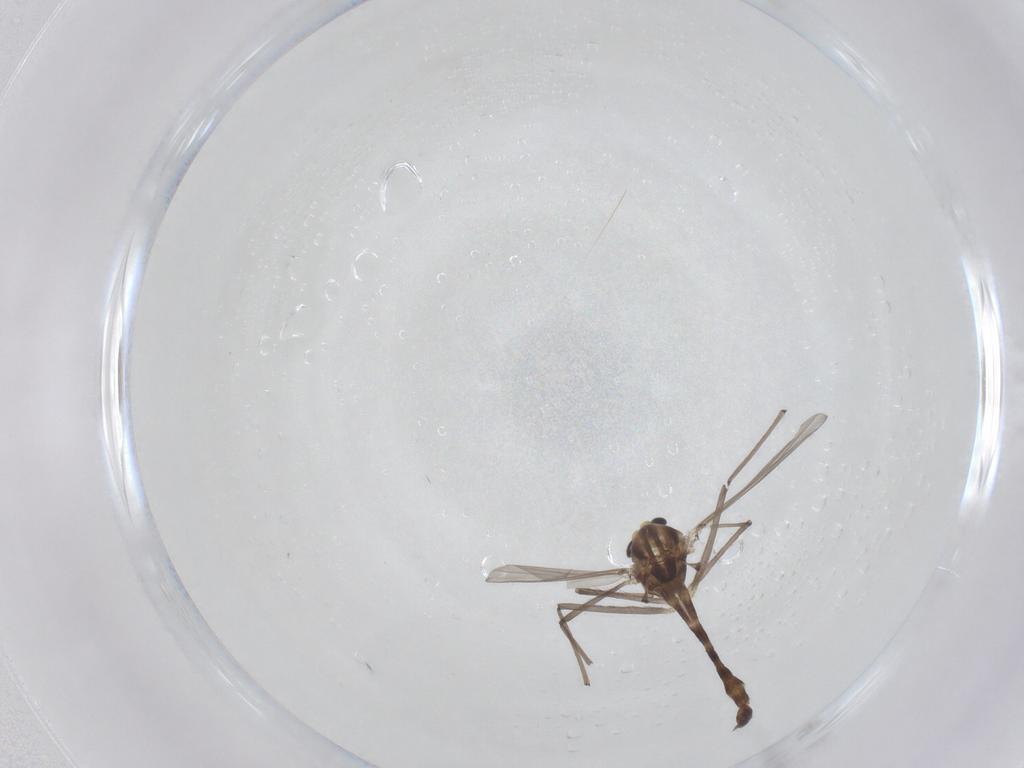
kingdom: Animalia
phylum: Arthropoda
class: Insecta
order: Diptera
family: Chironomidae
